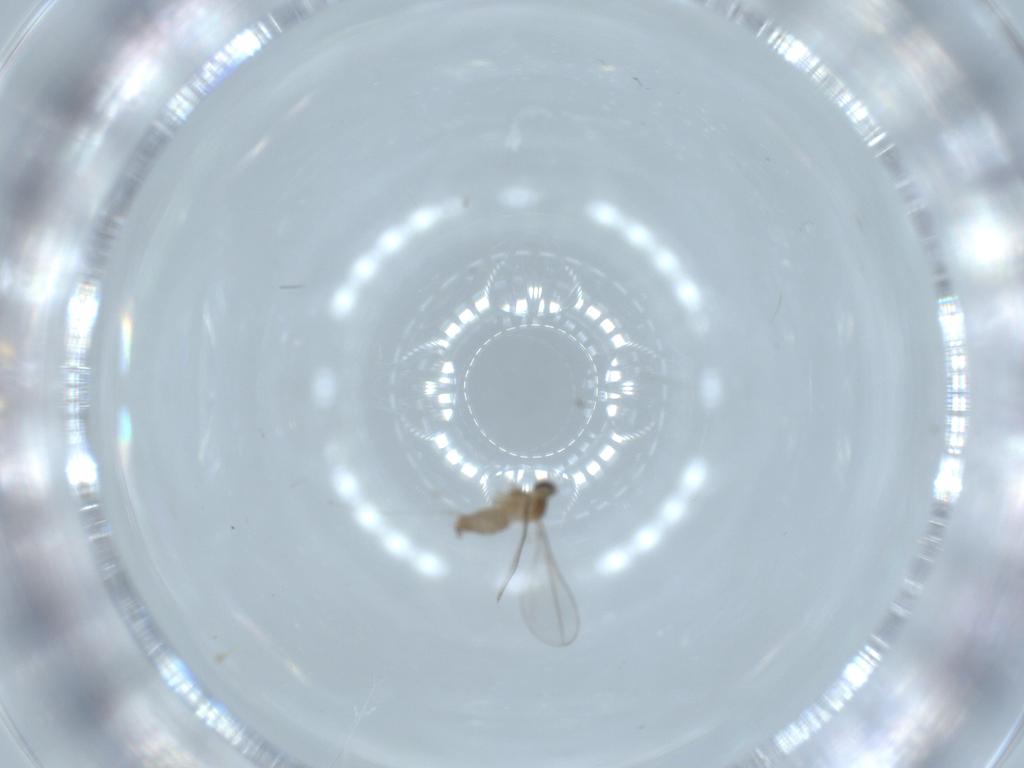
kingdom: Animalia
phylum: Arthropoda
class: Insecta
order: Diptera
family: Cecidomyiidae
